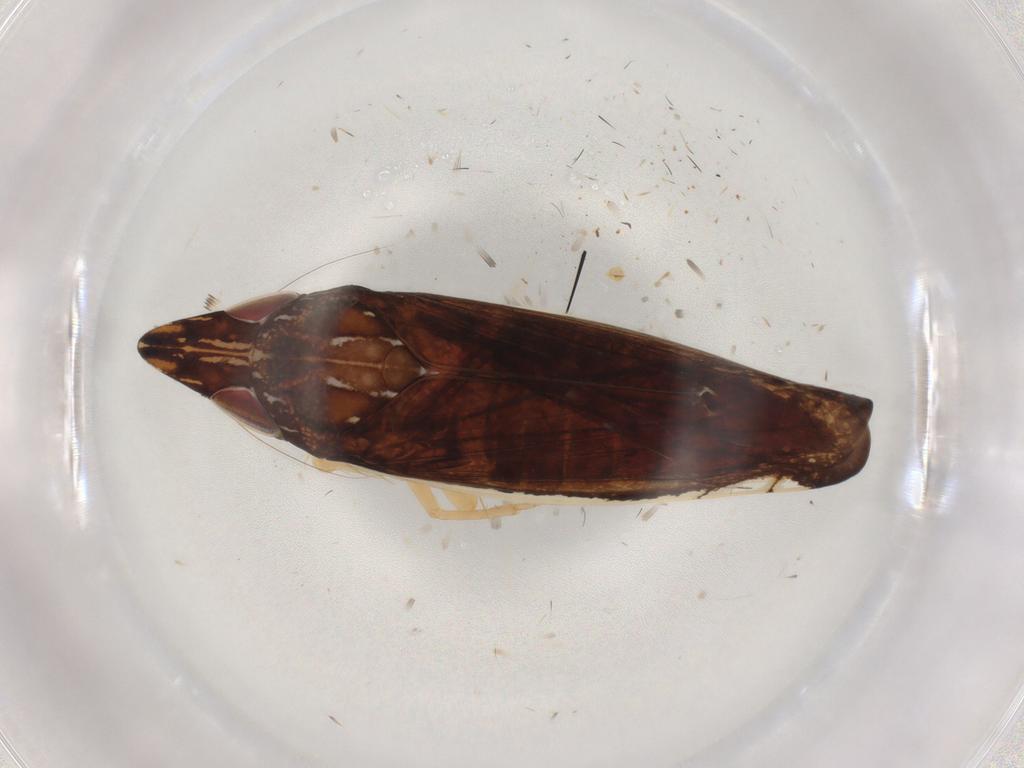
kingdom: Animalia
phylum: Arthropoda
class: Insecta
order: Hemiptera
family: Cicadellidae
